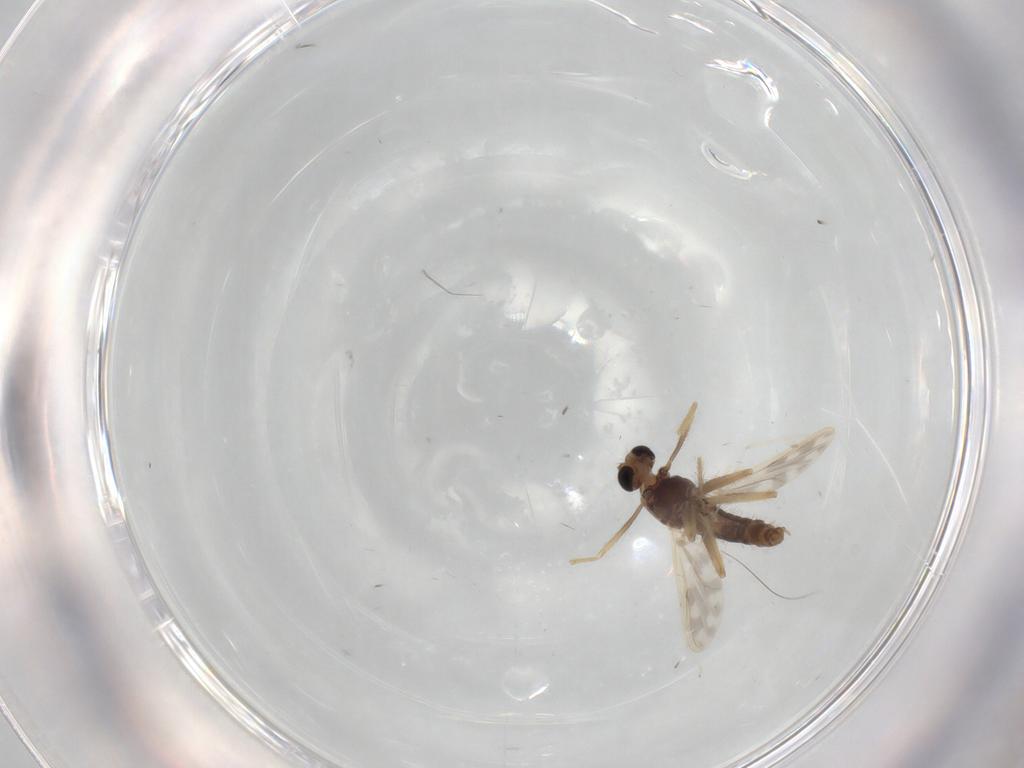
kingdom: Animalia
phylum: Arthropoda
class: Insecta
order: Diptera
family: Chironomidae
